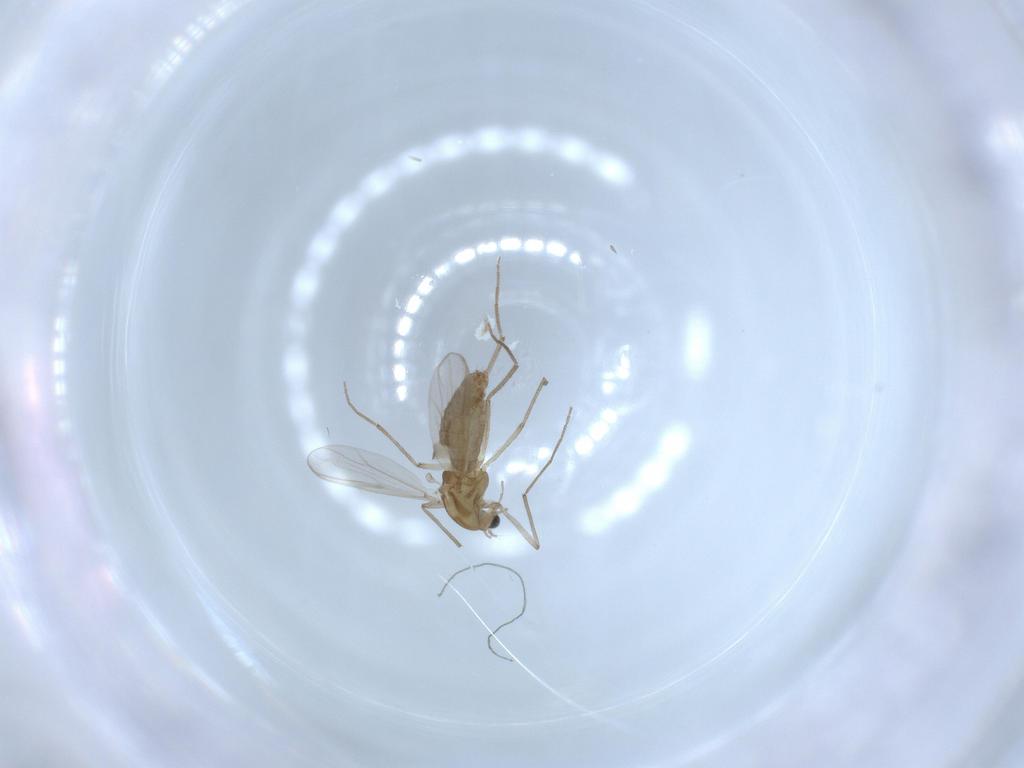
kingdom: Animalia
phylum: Arthropoda
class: Insecta
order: Diptera
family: Chironomidae
